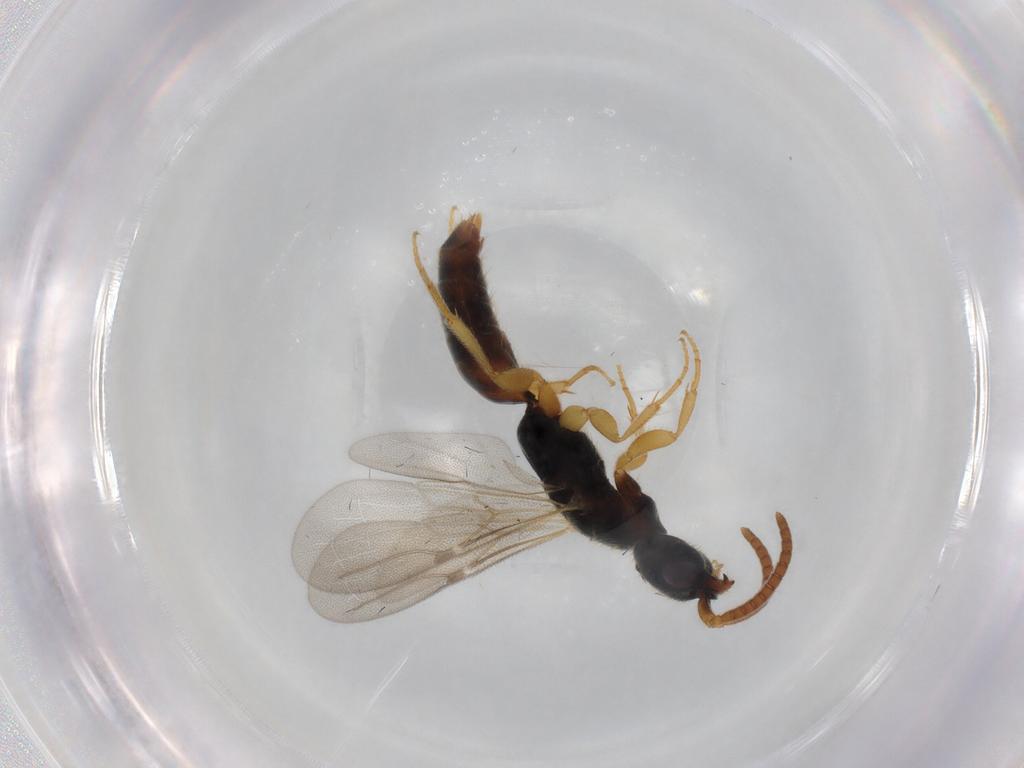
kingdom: Animalia
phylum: Arthropoda
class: Insecta
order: Hymenoptera
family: Bethylidae
